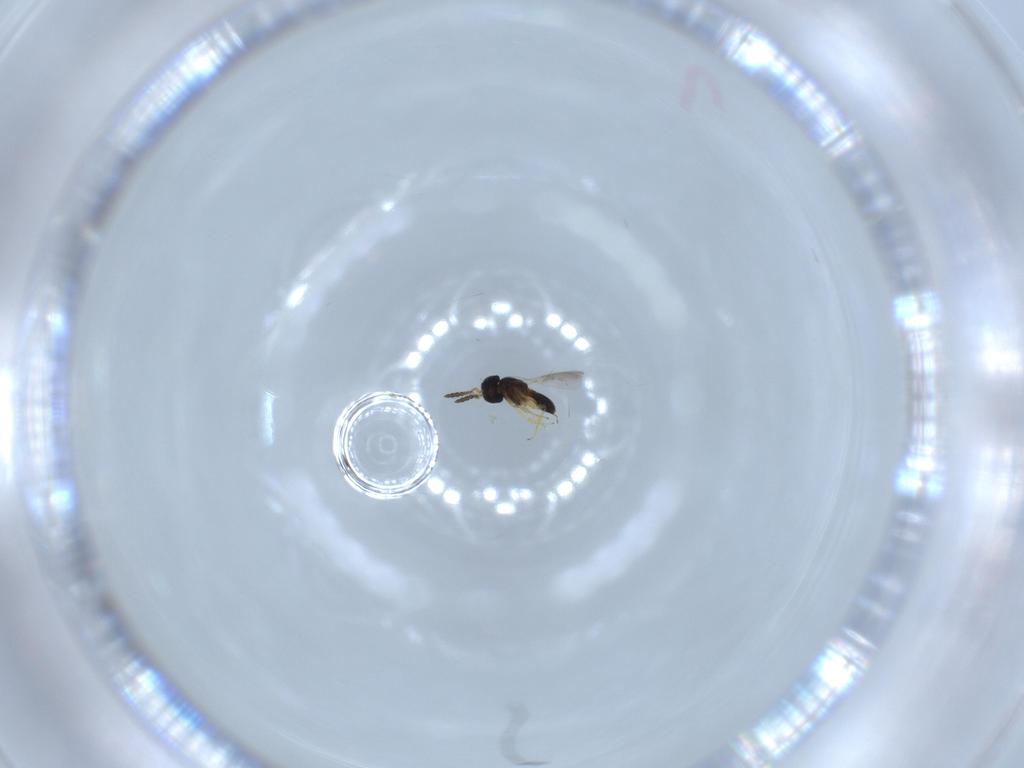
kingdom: Animalia
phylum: Arthropoda
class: Insecta
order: Hymenoptera
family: Scelionidae
